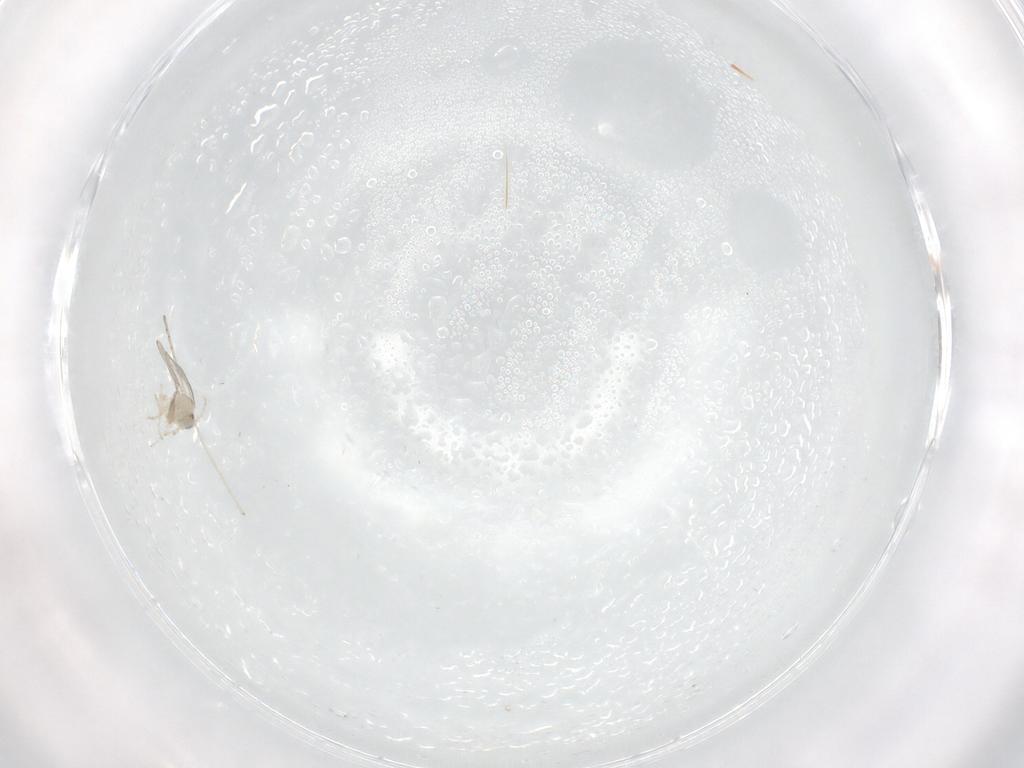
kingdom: Animalia
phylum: Arthropoda
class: Insecta
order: Diptera
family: Cecidomyiidae
